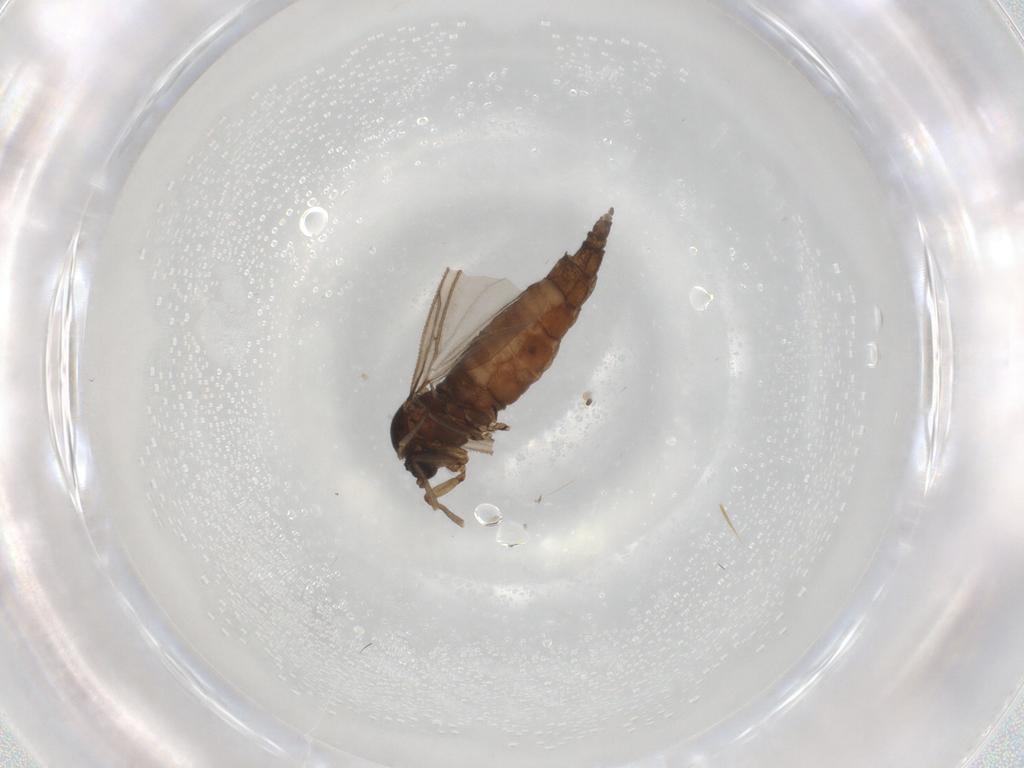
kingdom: Animalia
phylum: Arthropoda
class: Insecta
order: Diptera
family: Sciaridae
